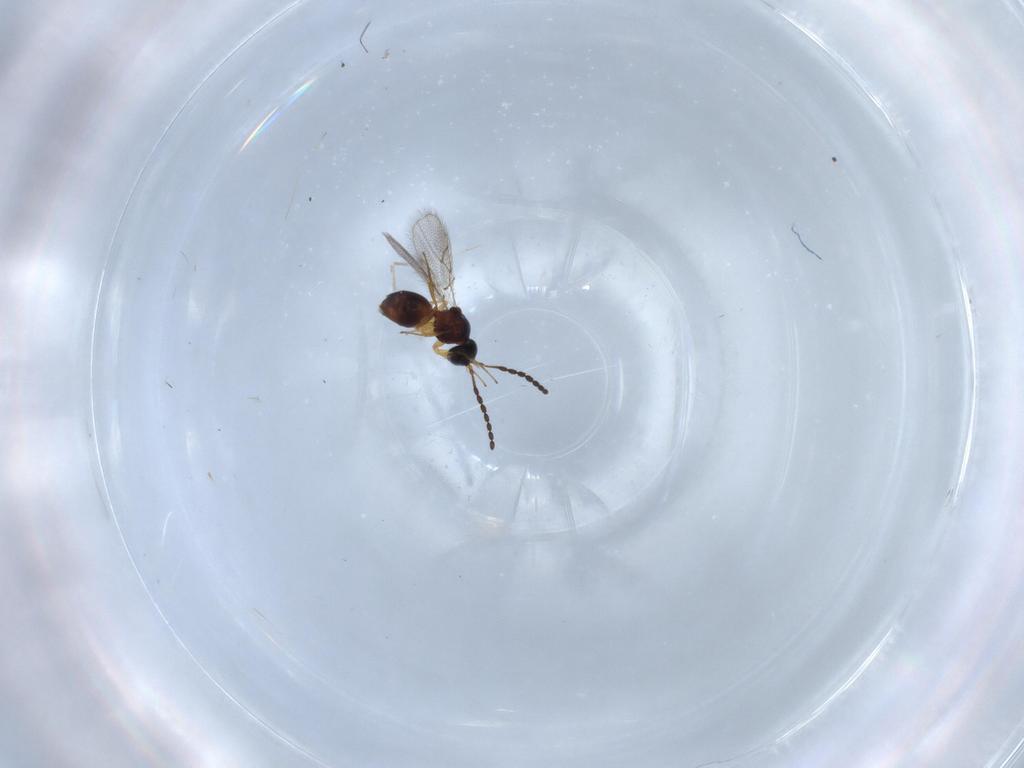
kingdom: Animalia
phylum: Arthropoda
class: Insecta
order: Hymenoptera
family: Figitidae
